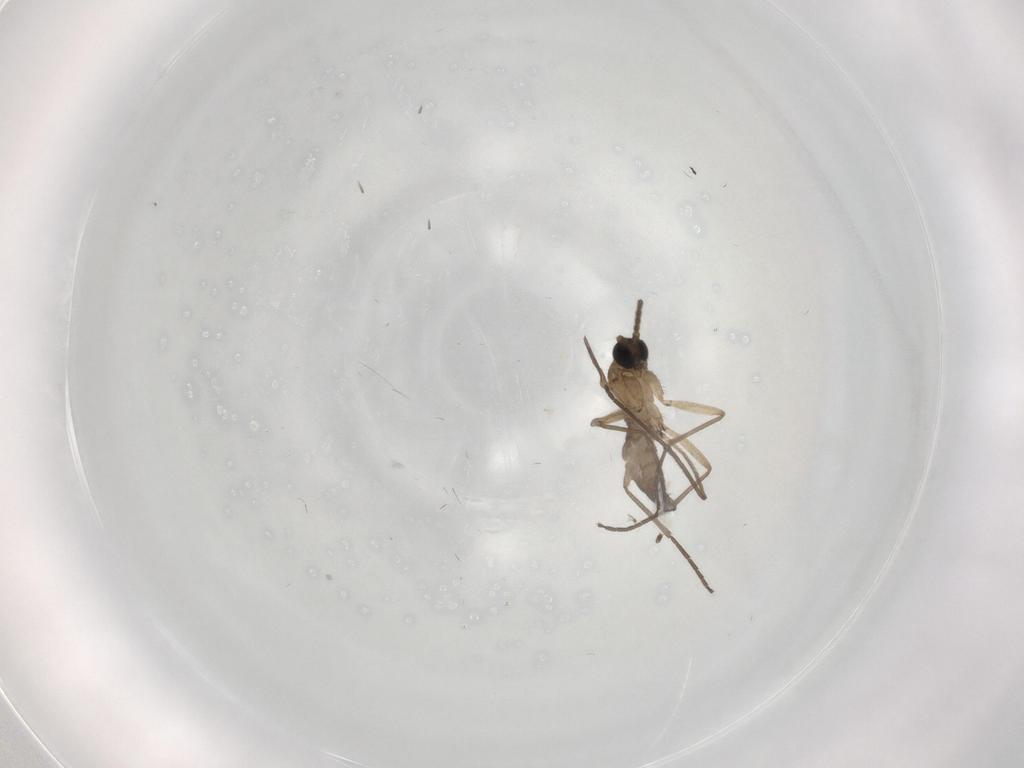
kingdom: Animalia
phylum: Arthropoda
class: Insecta
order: Diptera
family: Sciaridae
